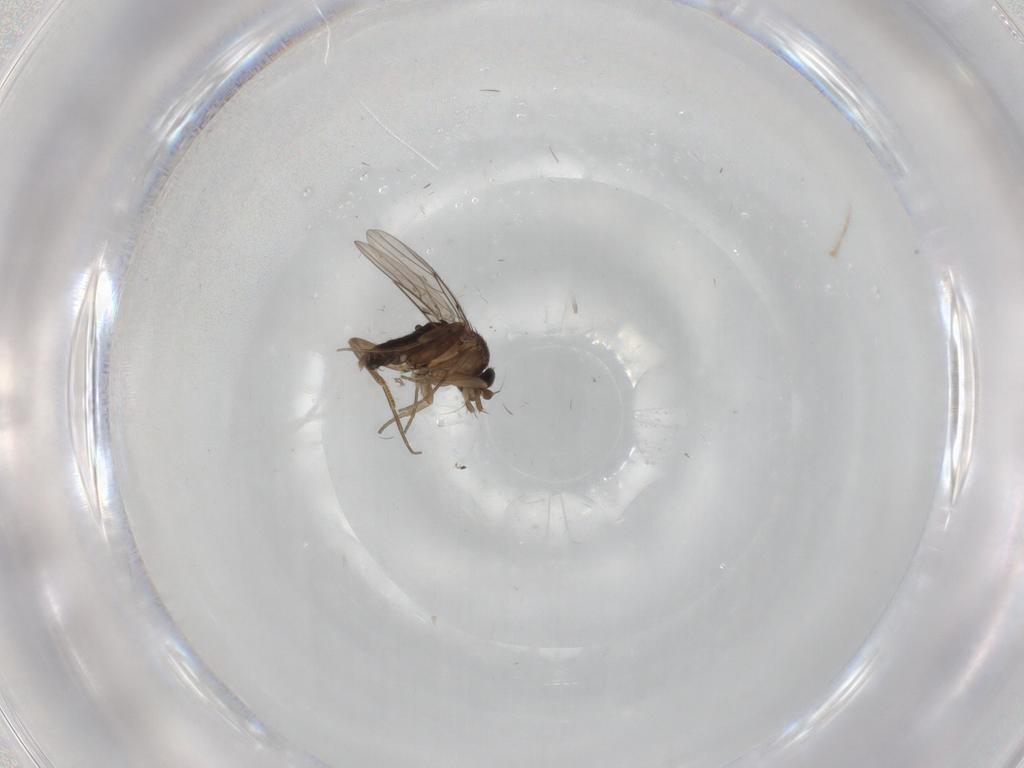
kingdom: Animalia
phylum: Arthropoda
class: Insecta
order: Diptera
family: Phoridae
